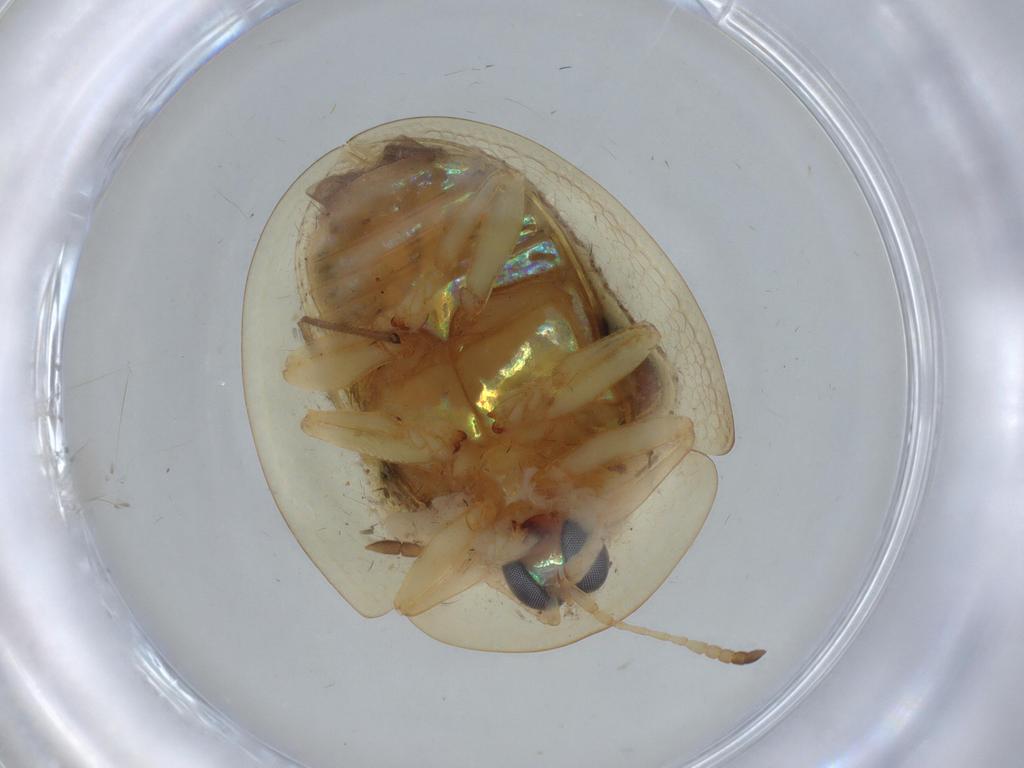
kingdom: Animalia
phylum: Arthropoda
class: Insecta
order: Coleoptera
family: Chrysomelidae
